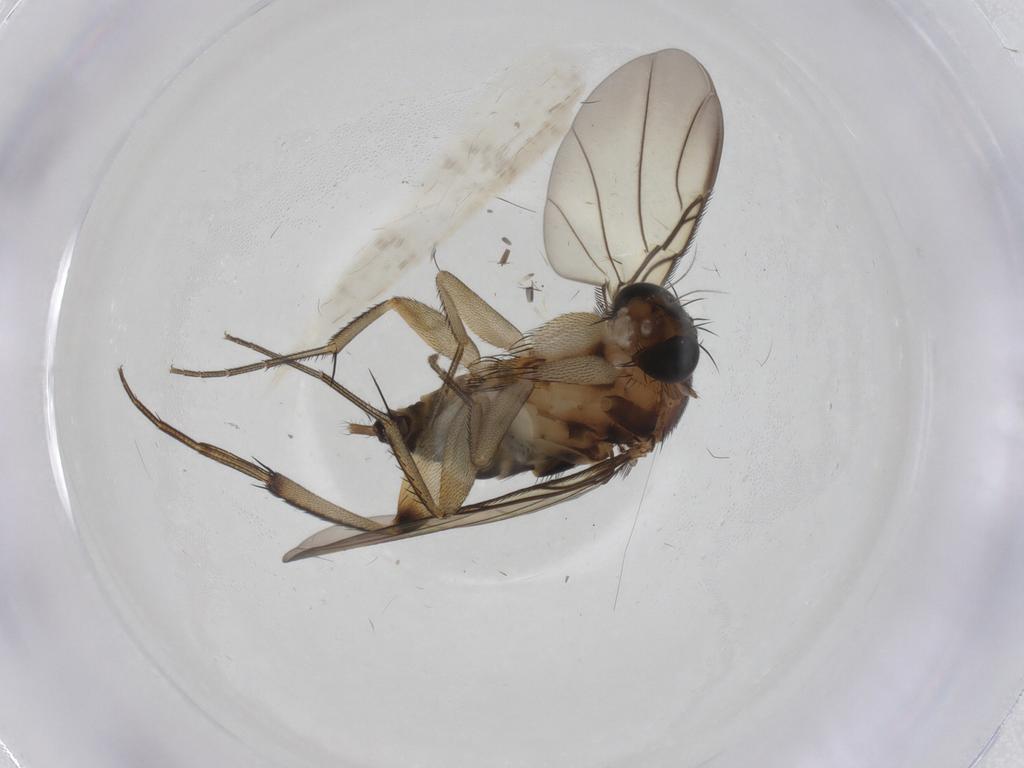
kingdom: Animalia
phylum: Arthropoda
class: Insecta
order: Diptera
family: Phoridae
